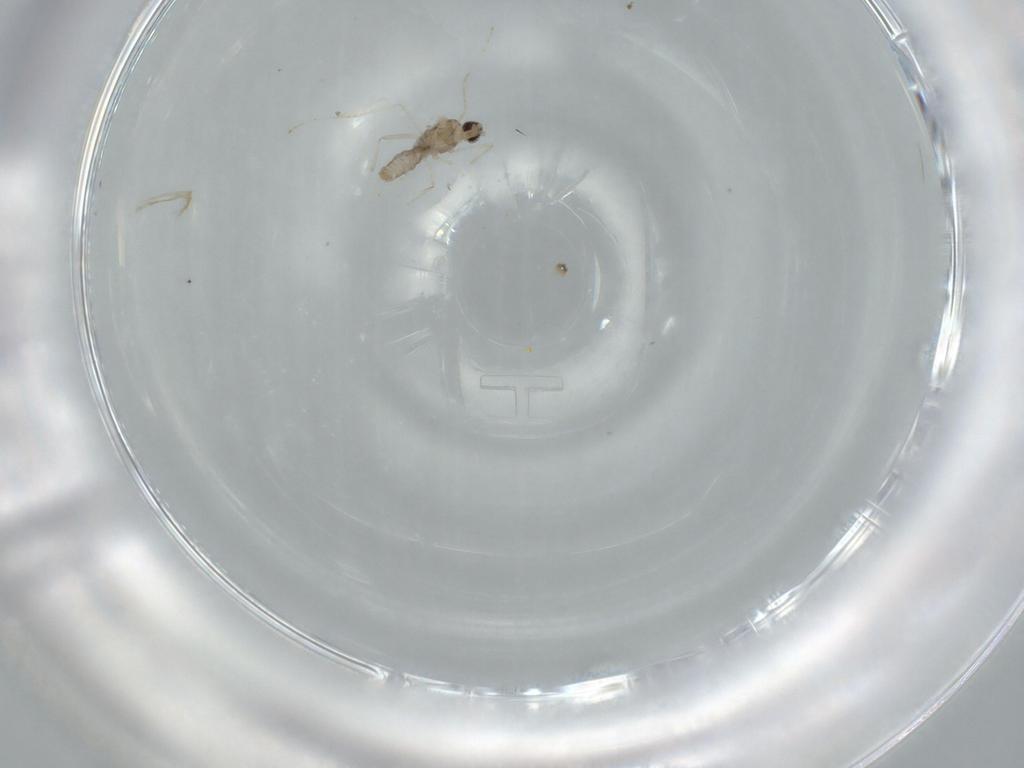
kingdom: Animalia
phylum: Arthropoda
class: Insecta
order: Diptera
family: Cecidomyiidae
